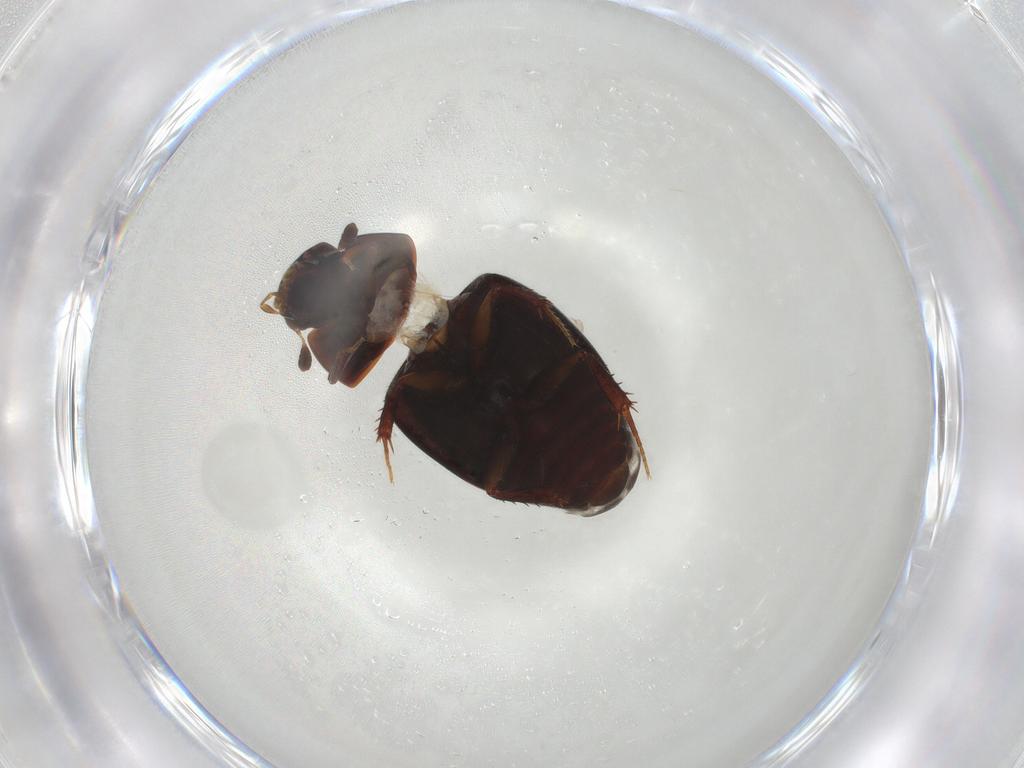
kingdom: Animalia
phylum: Arthropoda
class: Insecta
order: Coleoptera
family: Hydrophilidae
